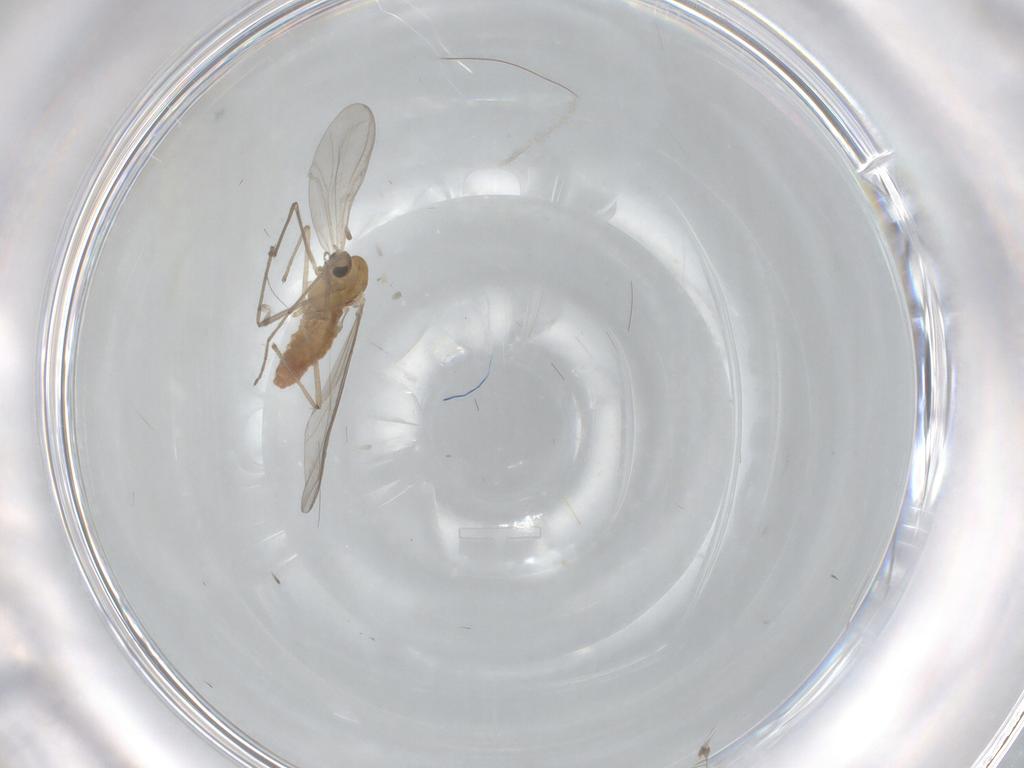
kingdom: Animalia
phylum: Arthropoda
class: Insecta
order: Diptera
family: Chironomidae
